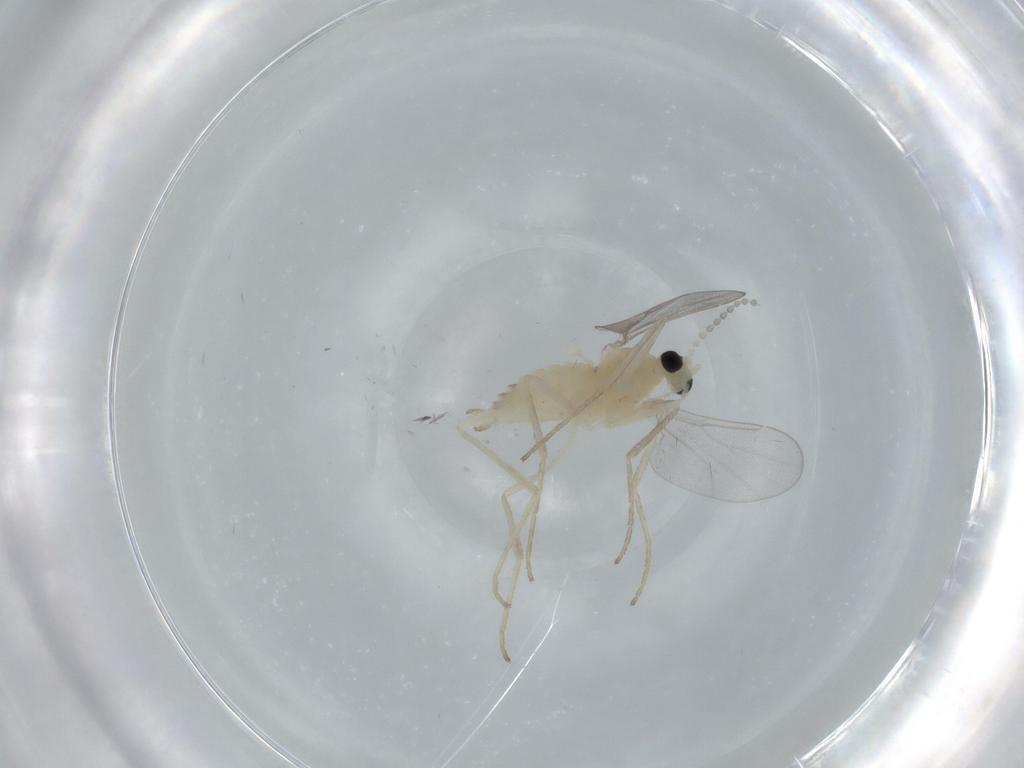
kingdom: Animalia
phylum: Arthropoda
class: Insecta
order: Diptera
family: Cecidomyiidae
